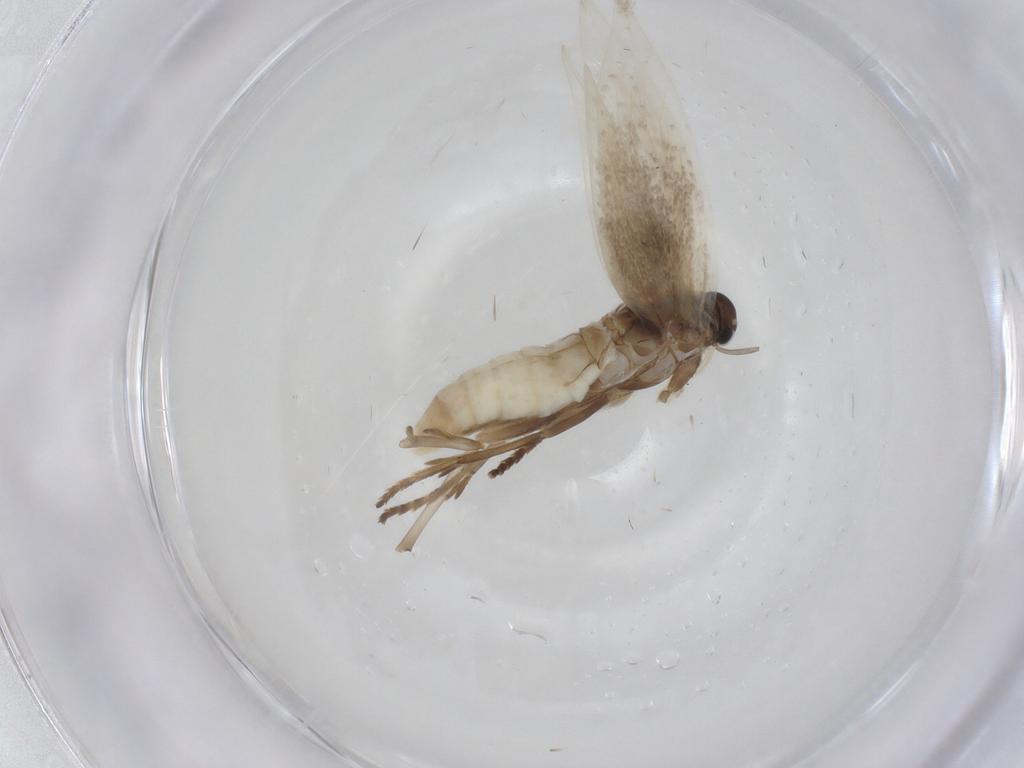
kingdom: Animalia
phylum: Arthropoda
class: Insecta
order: Lepidoptera
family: Elachistidae
